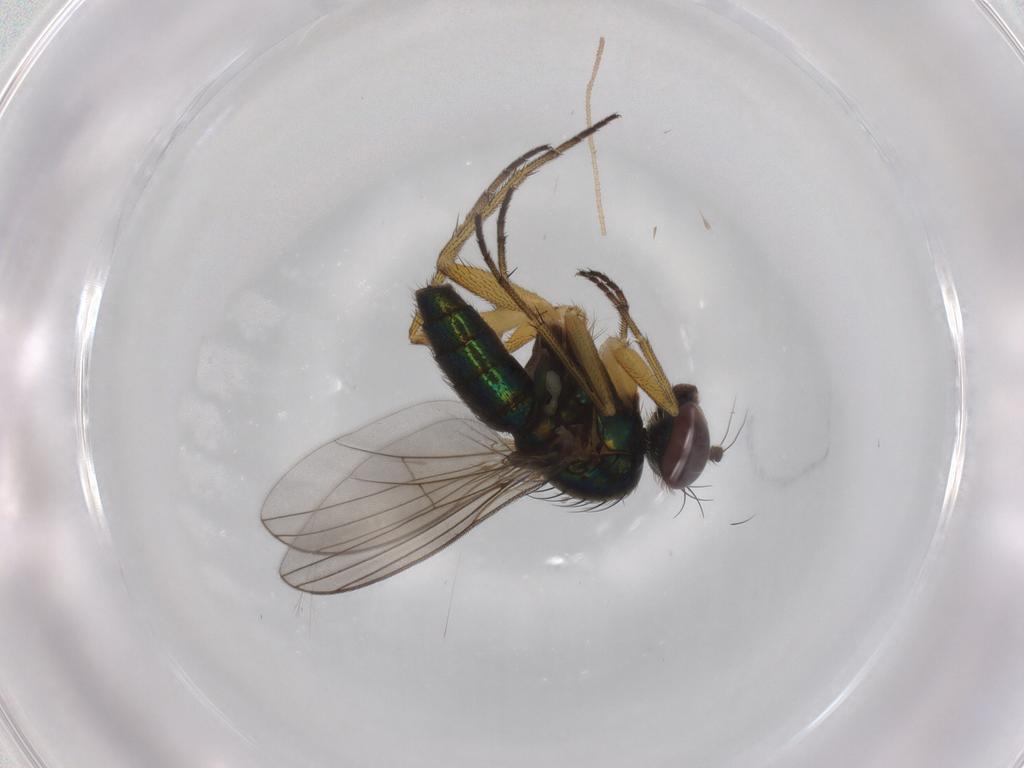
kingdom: Animalia
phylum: Arthropoda
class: Insecta
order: Diptera
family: Dolichopodidae
